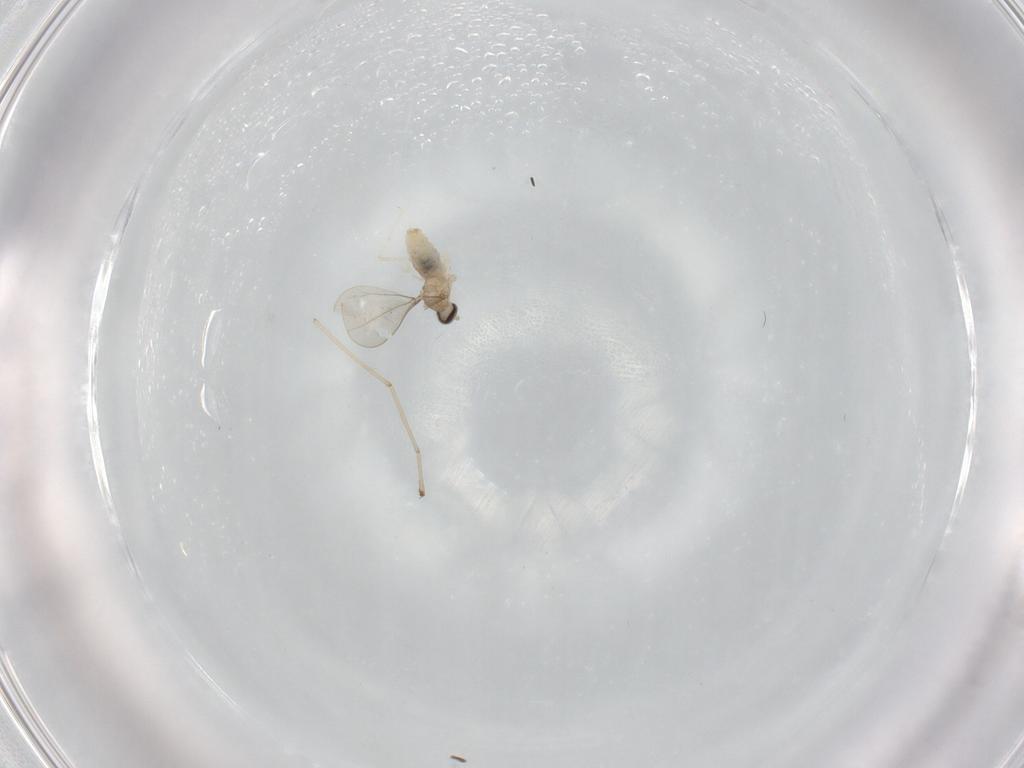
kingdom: Animalia
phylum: Arthropoda
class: Insecta
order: Diptera
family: Cecidomyiidae
